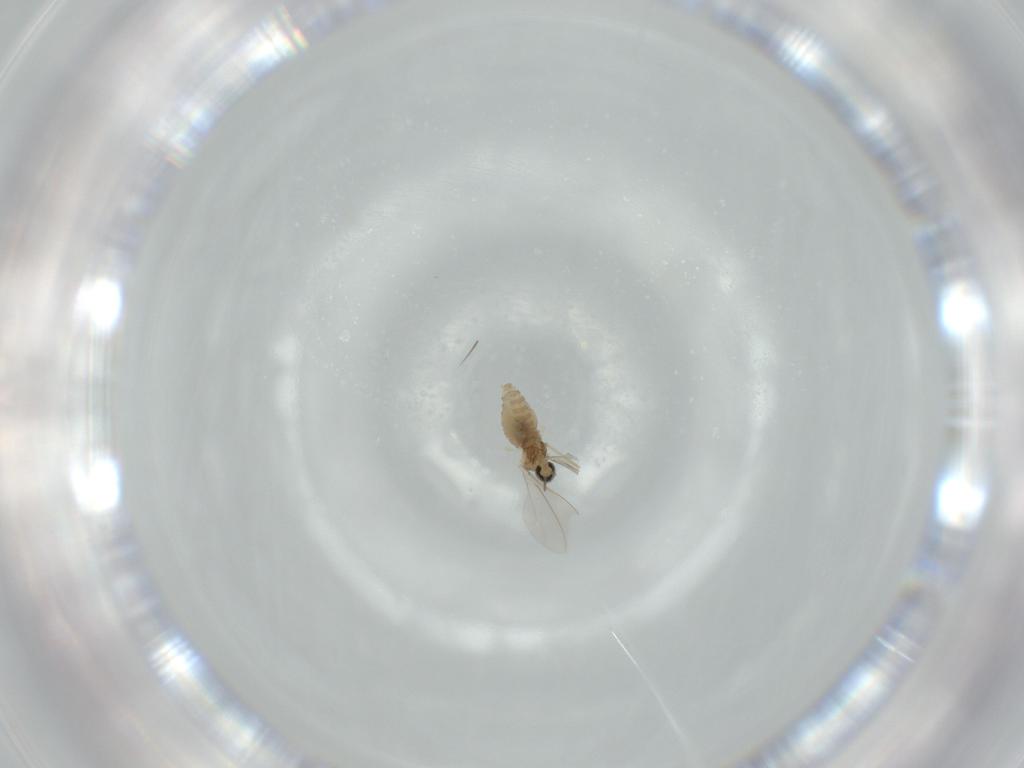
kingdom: Animalia
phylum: Arthropoda
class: Insecta
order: Diptera
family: Cecidomyiidae
